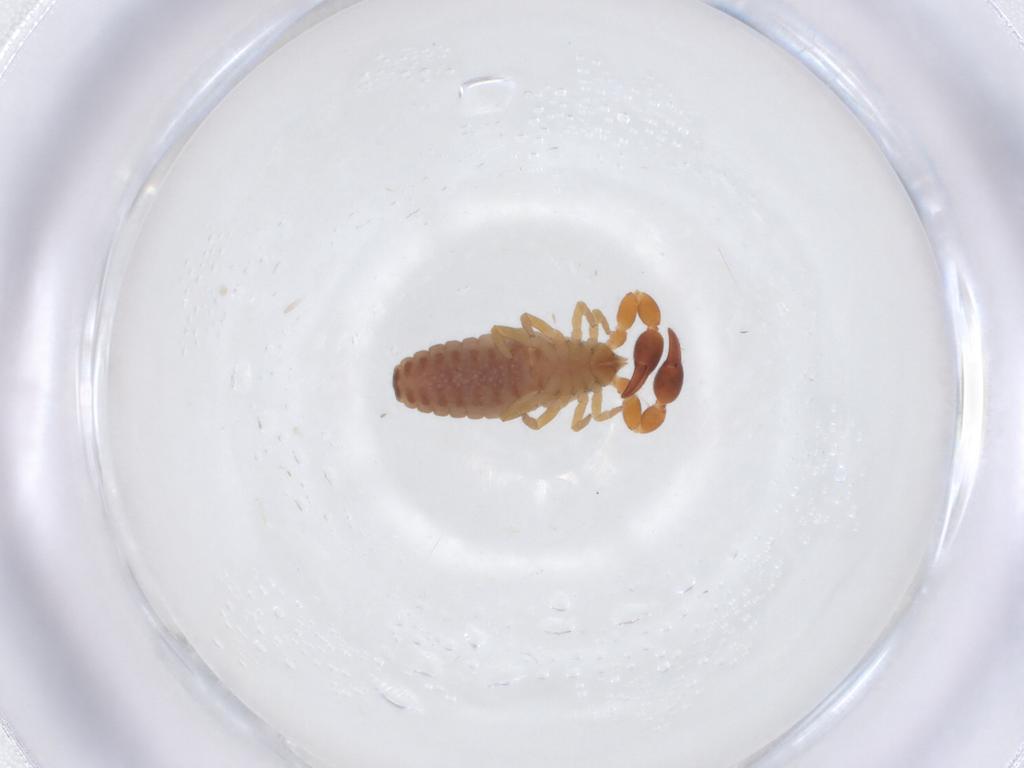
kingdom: Animalia
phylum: Arthropoda
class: Arachnida
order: Pseudoscorpiones
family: Chernetidae
